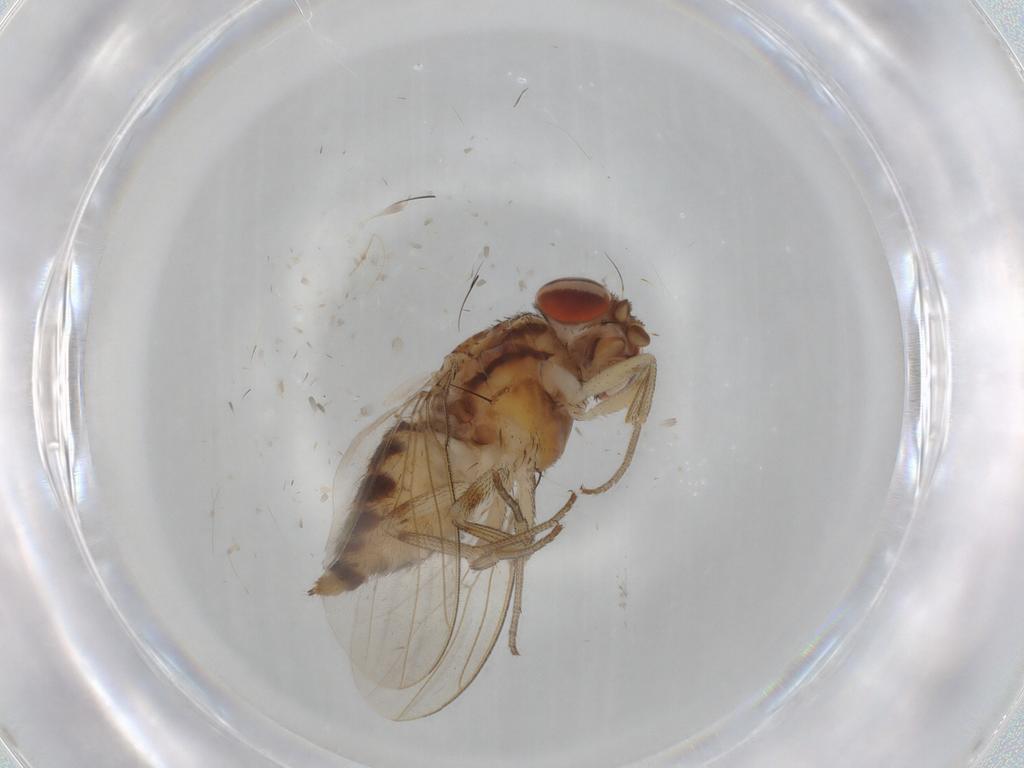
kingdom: Animalia
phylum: Arthropoda
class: Insecta
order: Diptera
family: Drosophilidae
